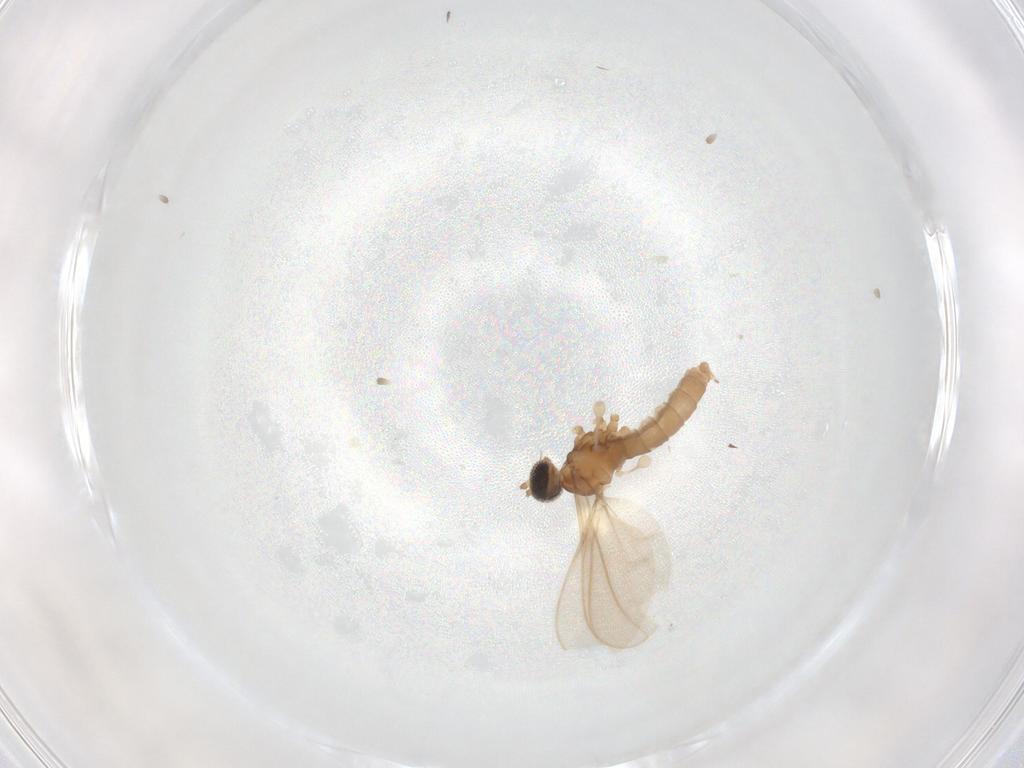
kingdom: Animalia
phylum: Arthropoda
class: Insecta
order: Diptera
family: Cecidomyiidae
